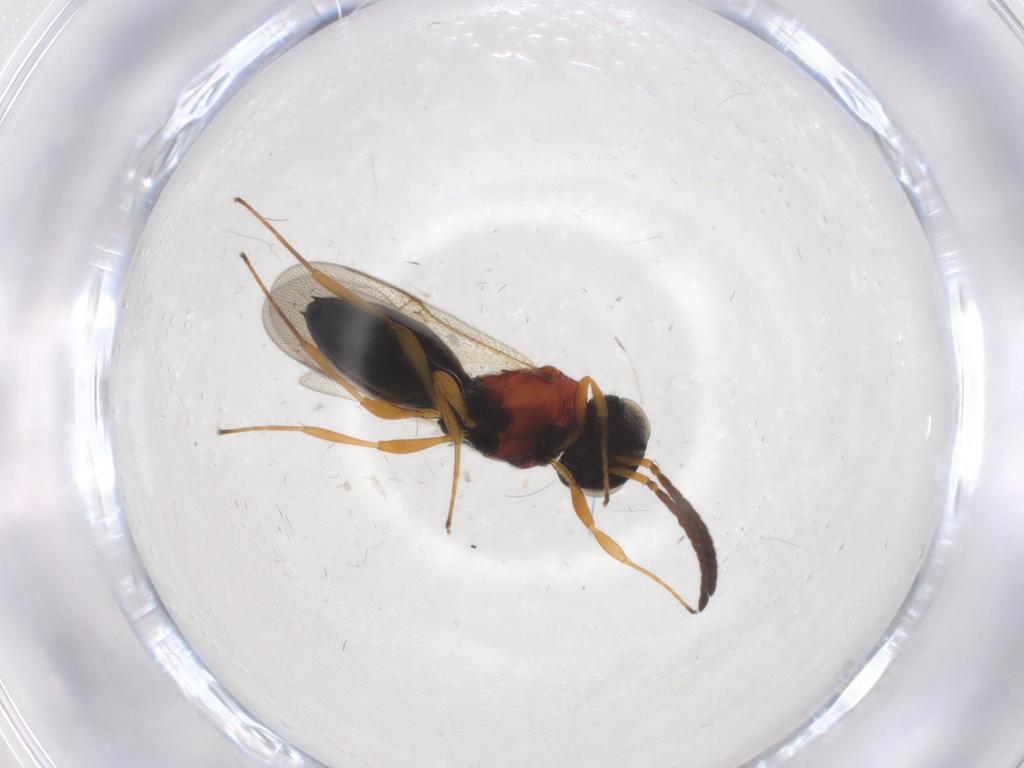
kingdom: Animalia
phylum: Arthropoda
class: Insecta
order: Hymenoptera
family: Scelionidae
